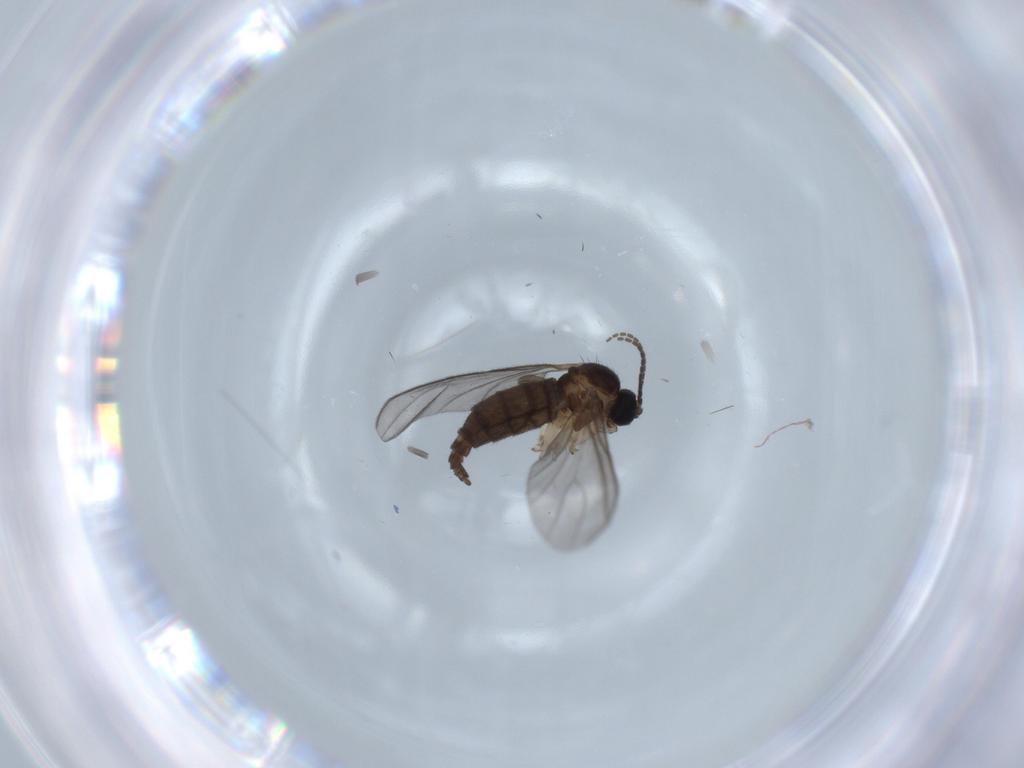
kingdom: Animalia
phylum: Arthropoda
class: Insecta
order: Diptera
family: Sciaridae
